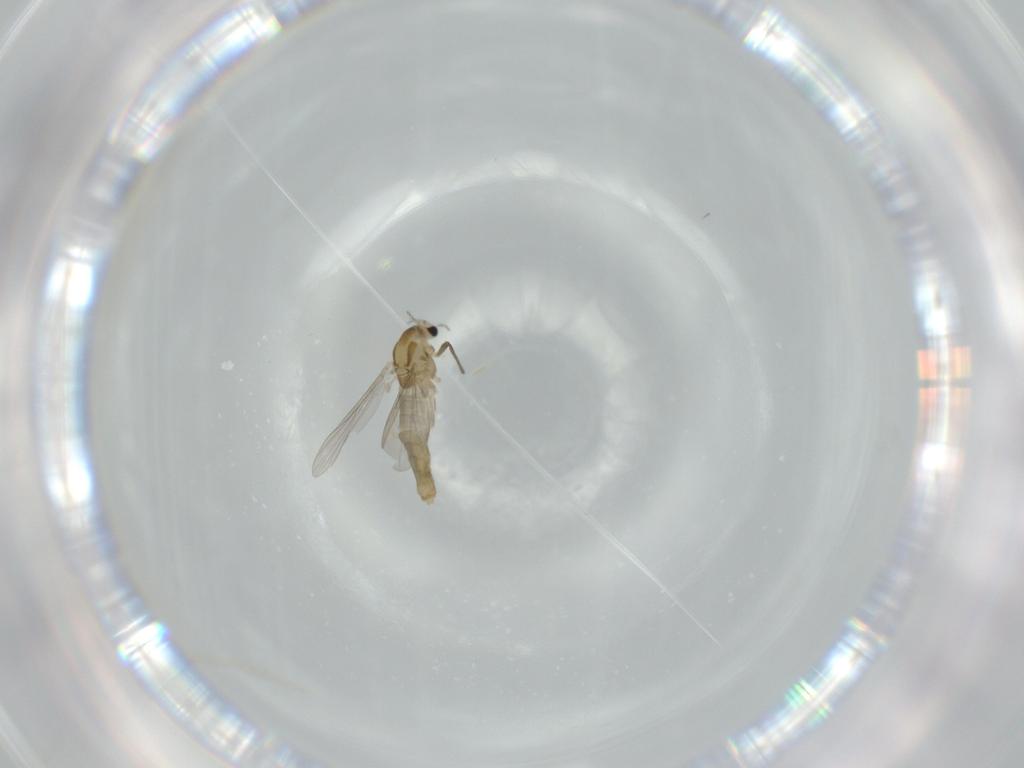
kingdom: Animalia
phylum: Arthropoda
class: Insecta
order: Diptera
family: Chironomidae
